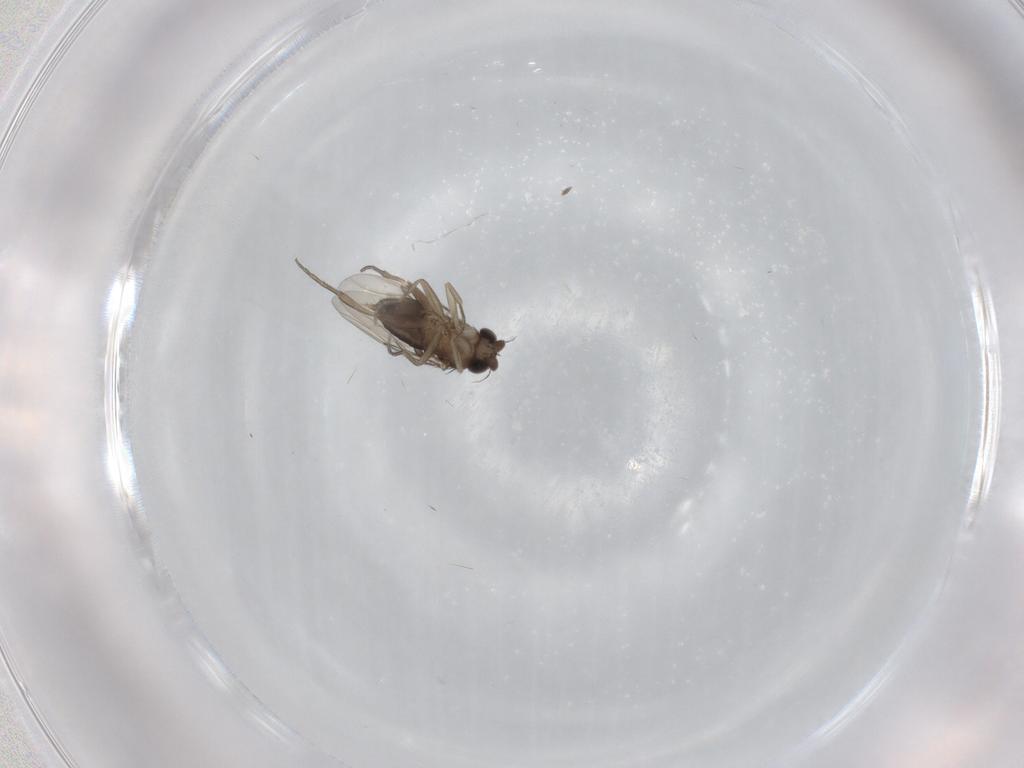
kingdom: Animalia
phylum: Arthropoda
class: Insecta
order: Diptera
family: Phoridae
